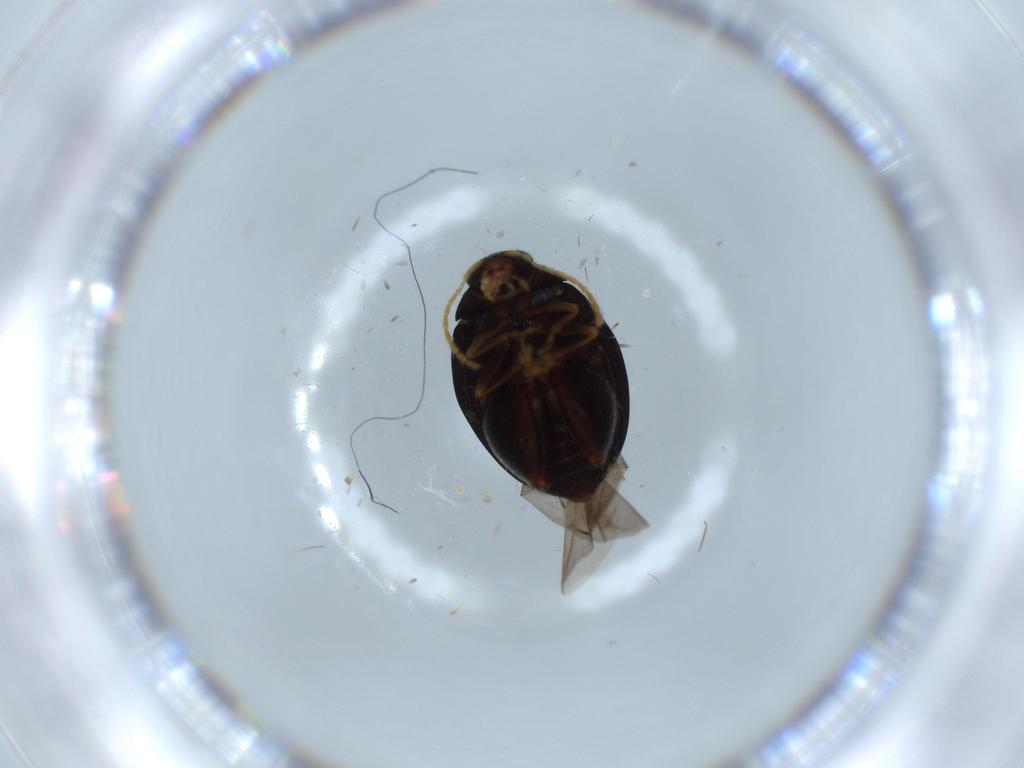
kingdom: Animalia
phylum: Arthropoda
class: Insecta
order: Coleoptera
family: Chrysomelidae
